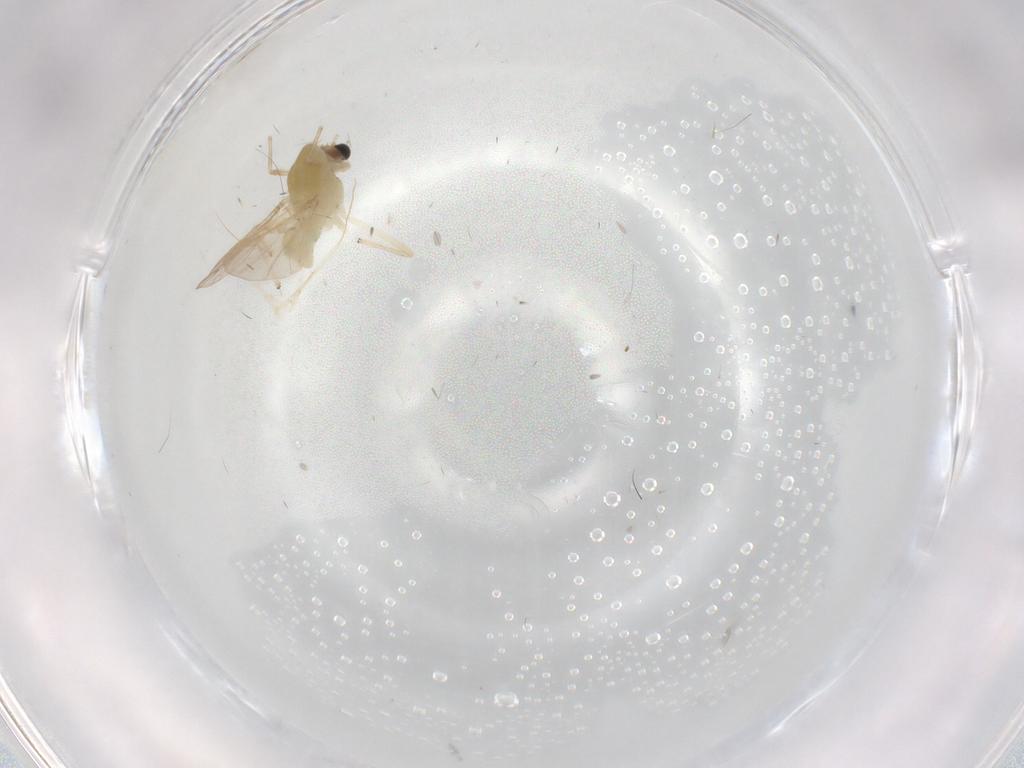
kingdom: Animalia
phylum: Arthropoda
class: Insecta
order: Diptera
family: Chironomidae
